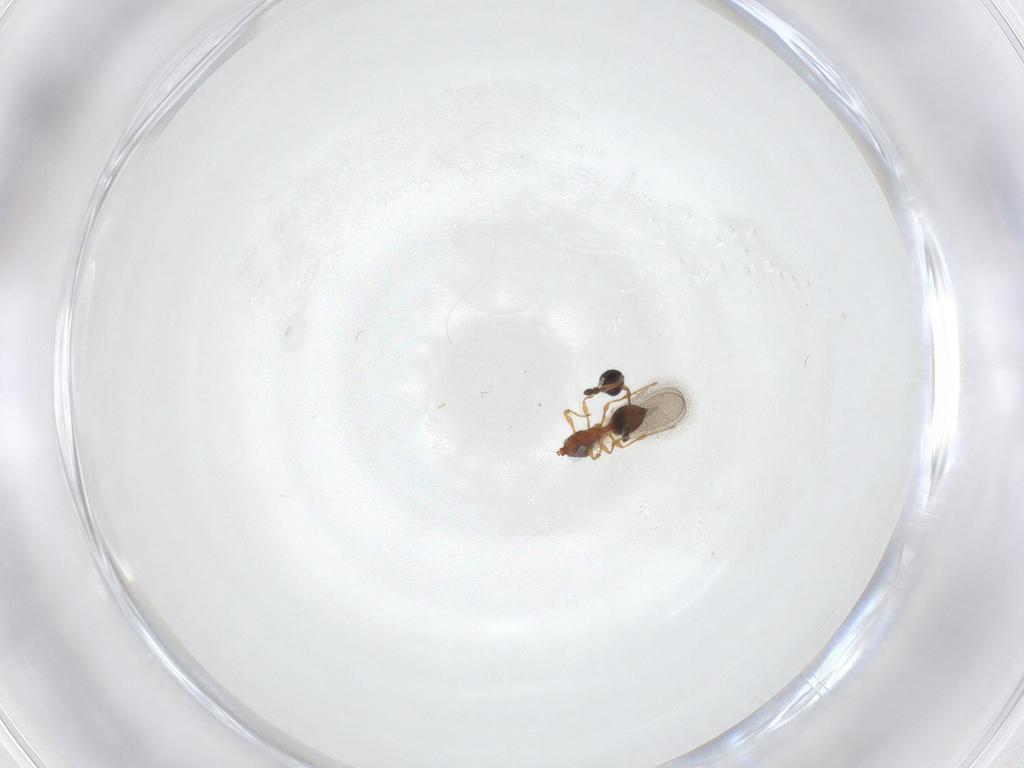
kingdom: Animalia
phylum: Arthropoda
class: Insecta
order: Hymenoptera
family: Diapriidae
